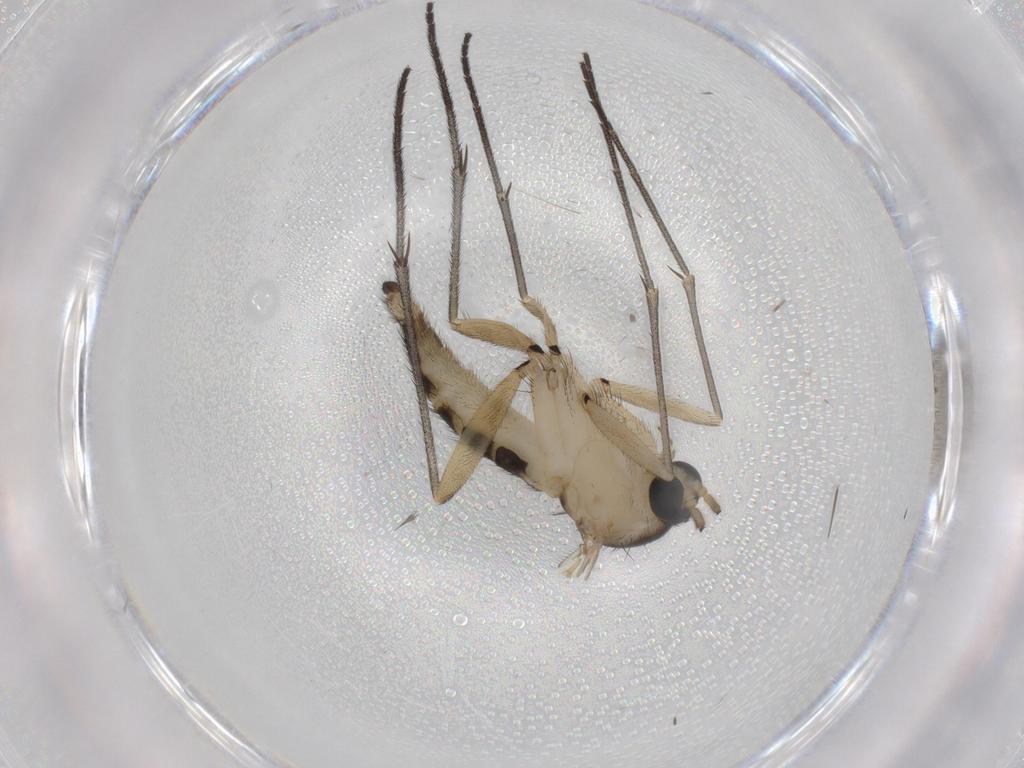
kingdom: Animalia
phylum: Arthropoda
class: Insecta
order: Diptera
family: Sciaridae
